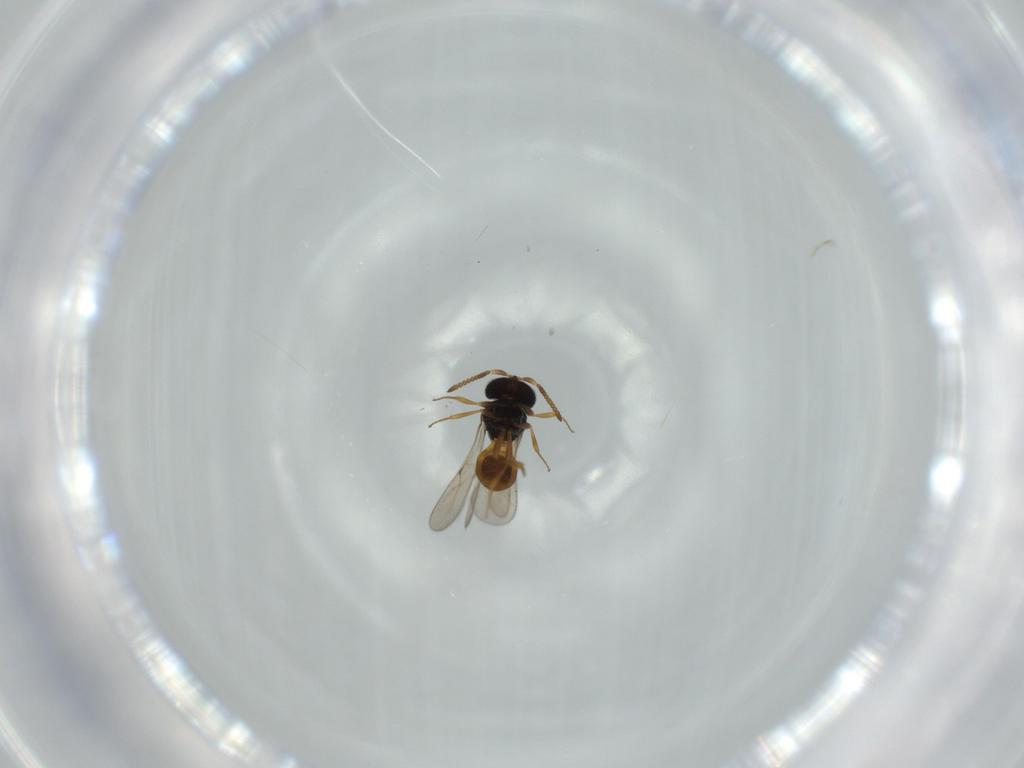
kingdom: Animalia
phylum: Arthropoda
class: Insecta
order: Hymenoptera
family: Scelionidae
